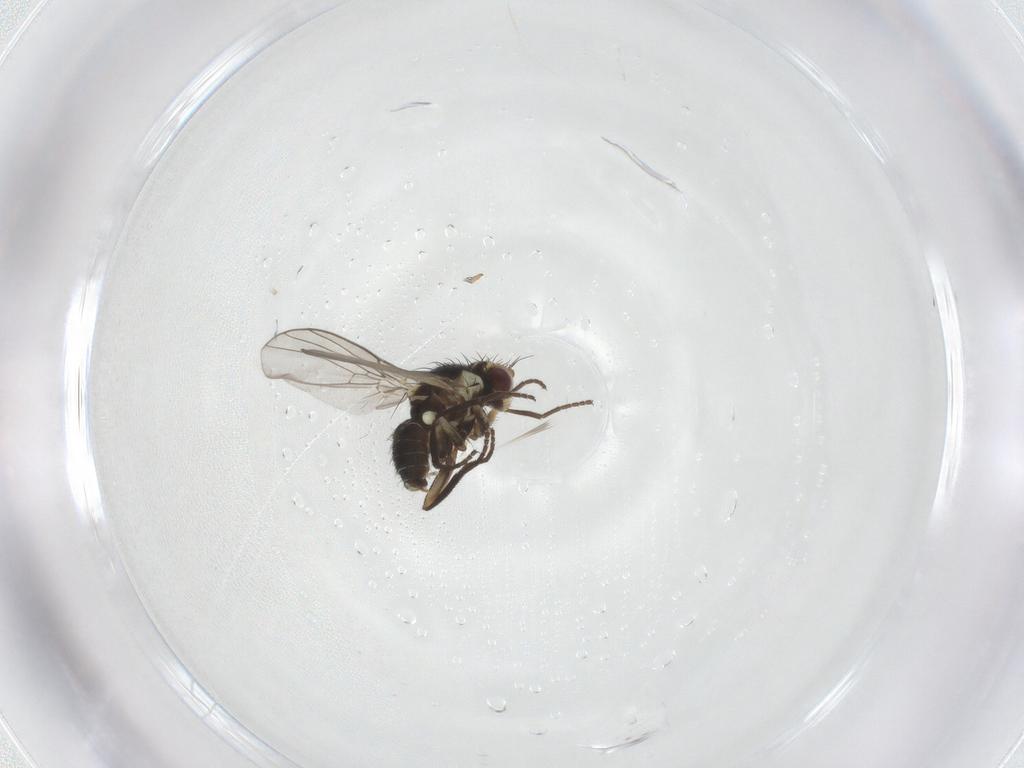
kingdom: Animalia
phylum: Arthropoda
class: Insecta
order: Diptera
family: Agromyzidae
